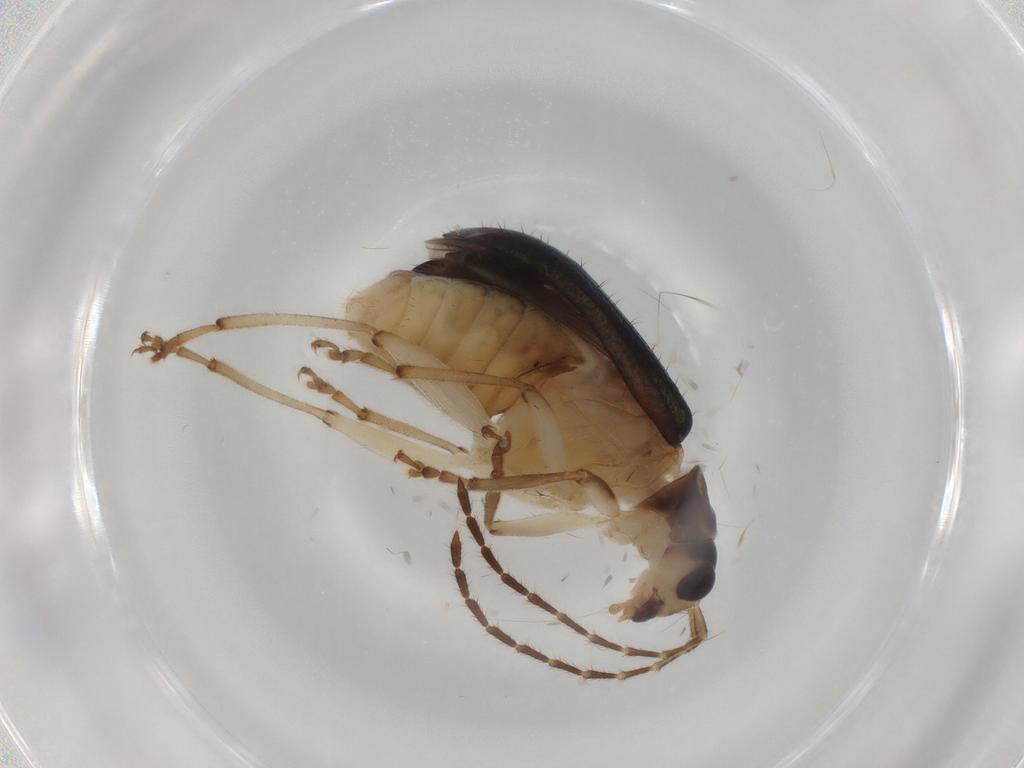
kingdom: Animalia
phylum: Arthropoda
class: Insecta
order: Coleoptera
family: Chrysomelidae
